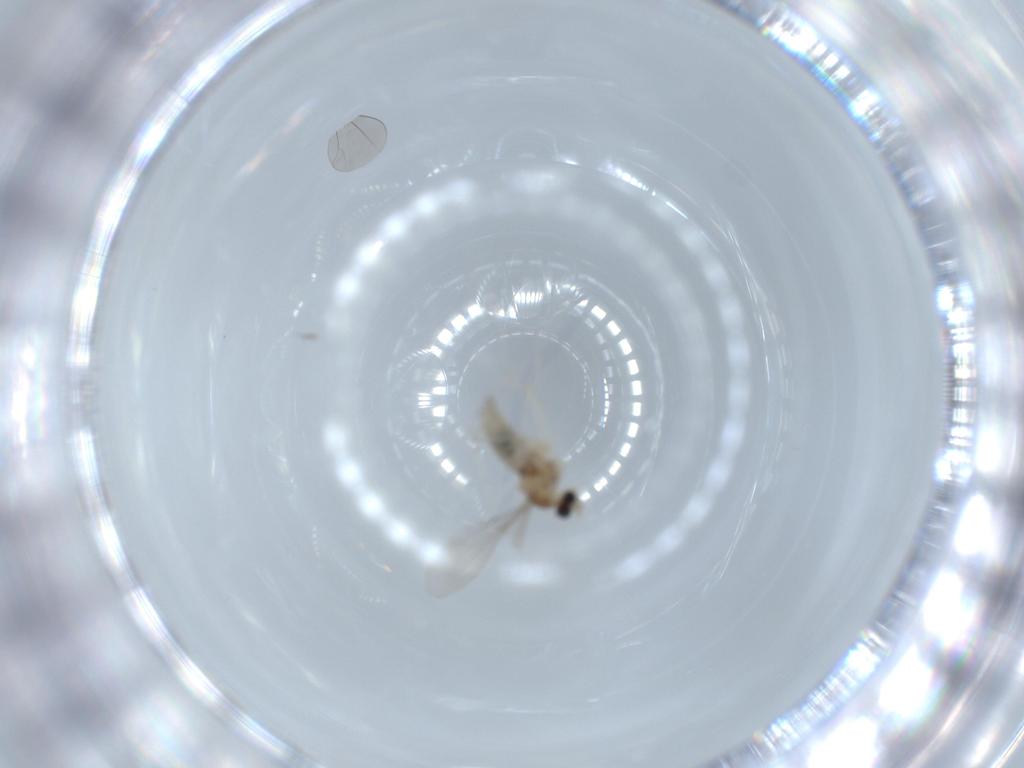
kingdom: Animalia
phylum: Arthropoda
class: Insecta
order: Diptera
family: Cecidomyiidae
